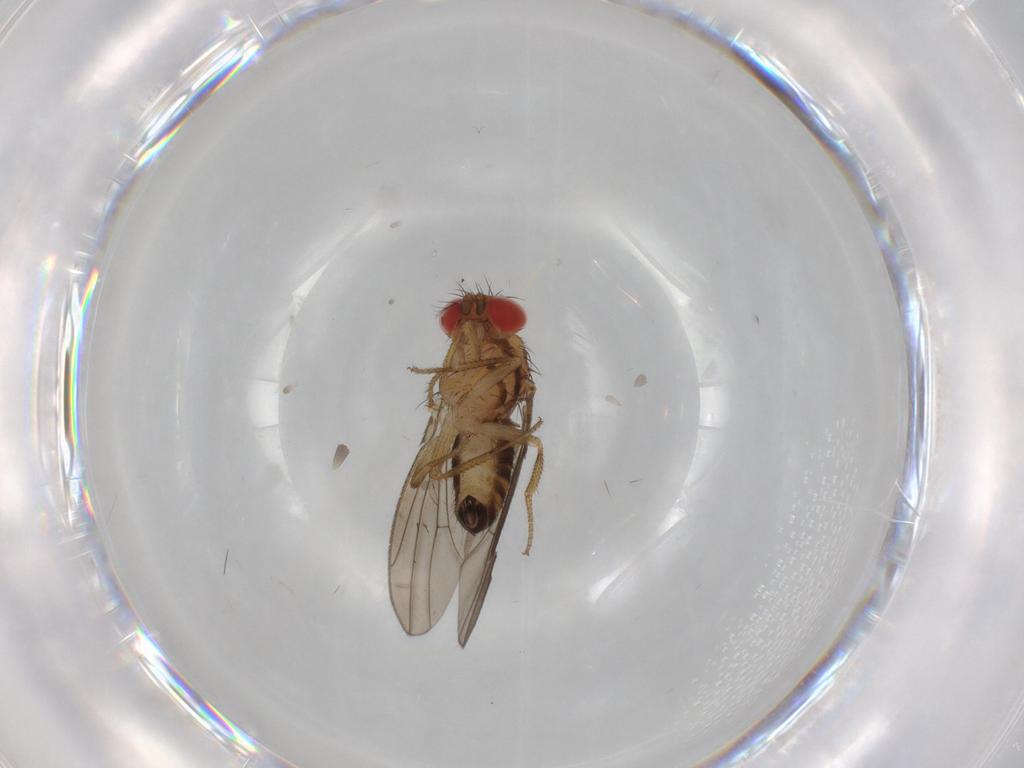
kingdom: Animalia
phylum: Arthropoda
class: Insecta
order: Diptera
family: Drosophilidae
